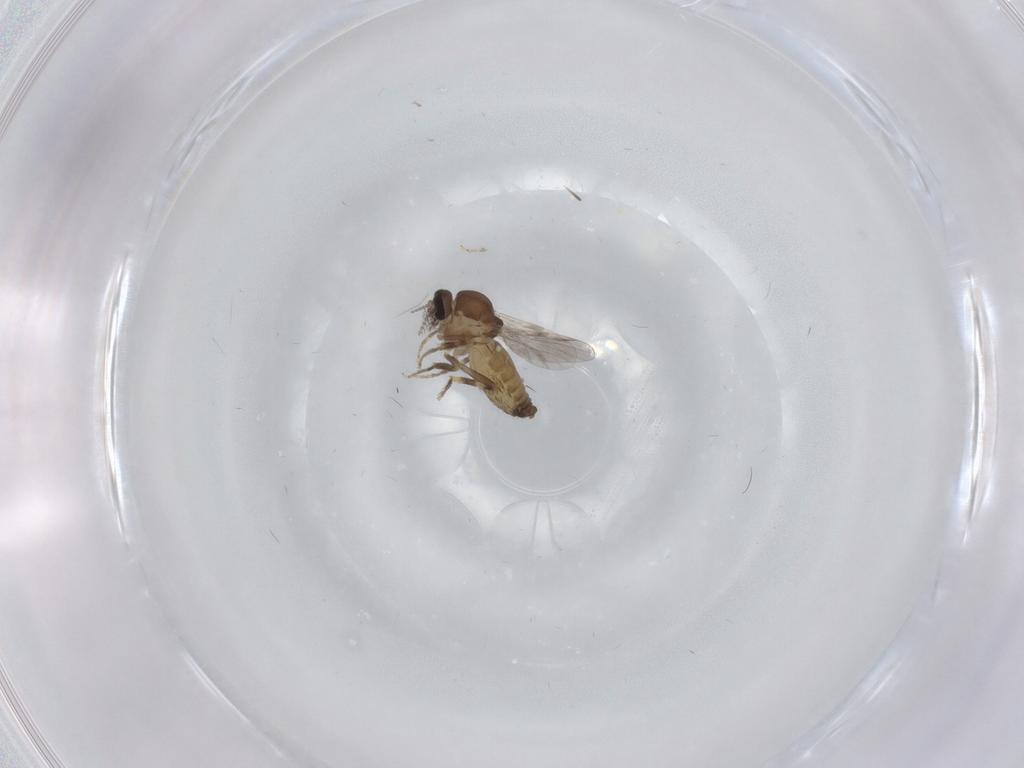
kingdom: Animalia
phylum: Arthropoda
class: Insecta
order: Diptera
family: Ceratopogonidae
